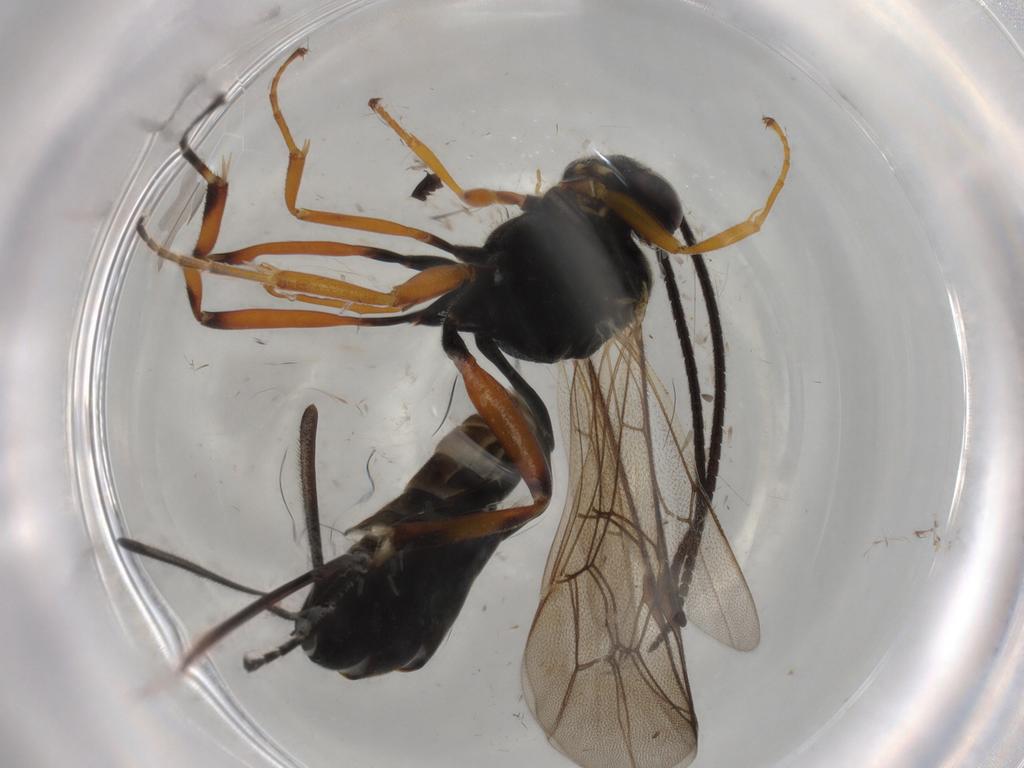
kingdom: Animalia
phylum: Arthropoda
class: Insecta
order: Hymenoptera
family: Ichneumonidae
